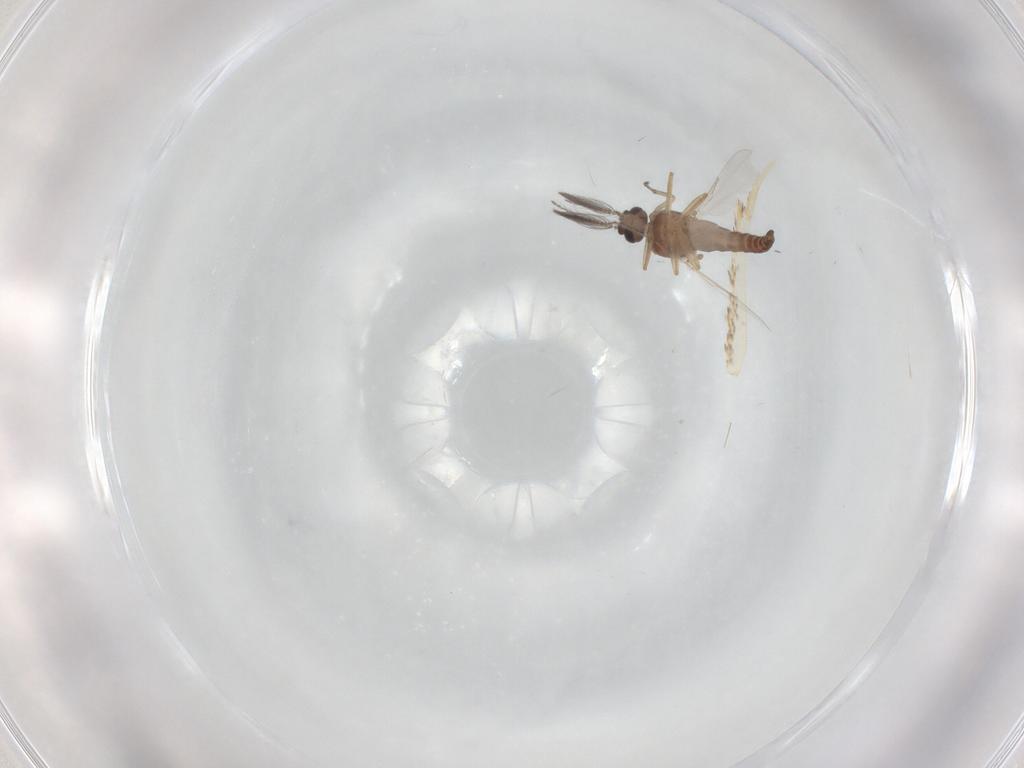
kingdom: Animalia
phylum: Arthropoda
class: Insecta
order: Diptera
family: Ceratopogonidae
